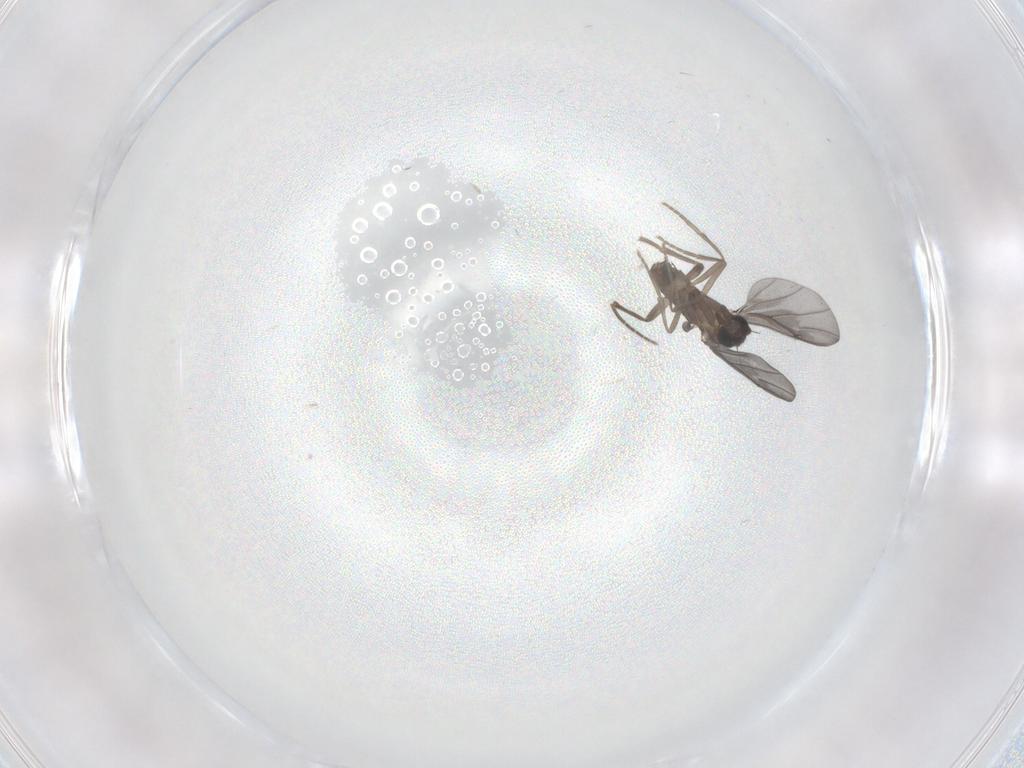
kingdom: Animalia
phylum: Arthropoda
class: Insecta
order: Diptera
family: Phoridae
